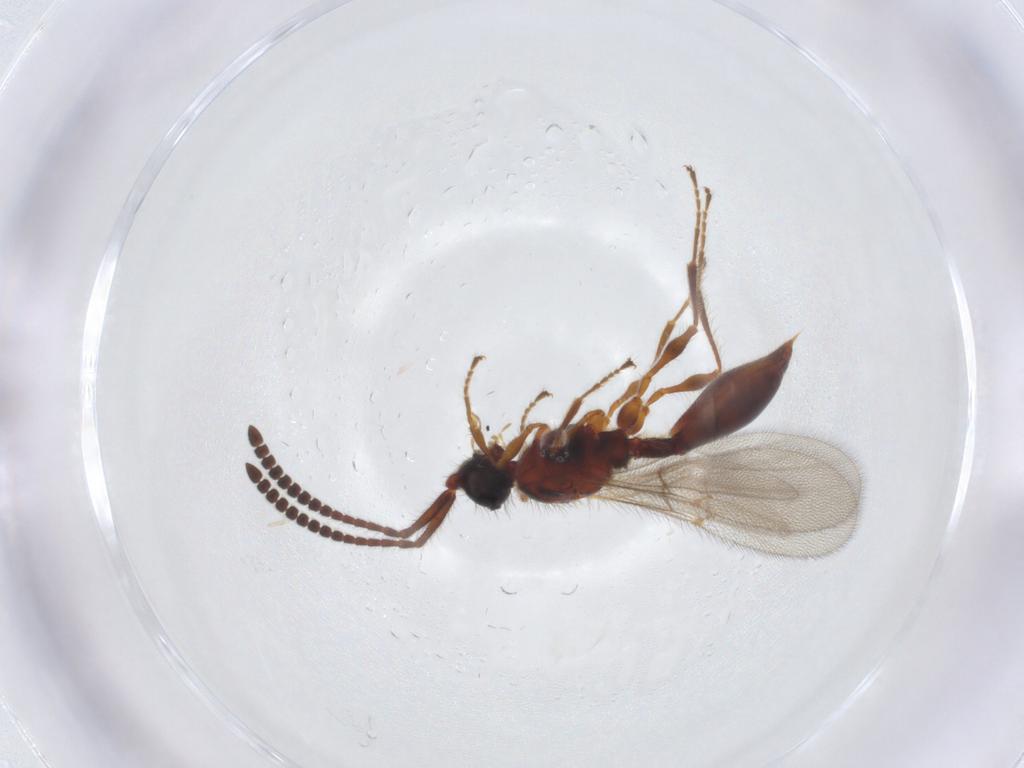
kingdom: Animalia
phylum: Arthropoda
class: Insecta
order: Hymenoptera
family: Diapriidae
